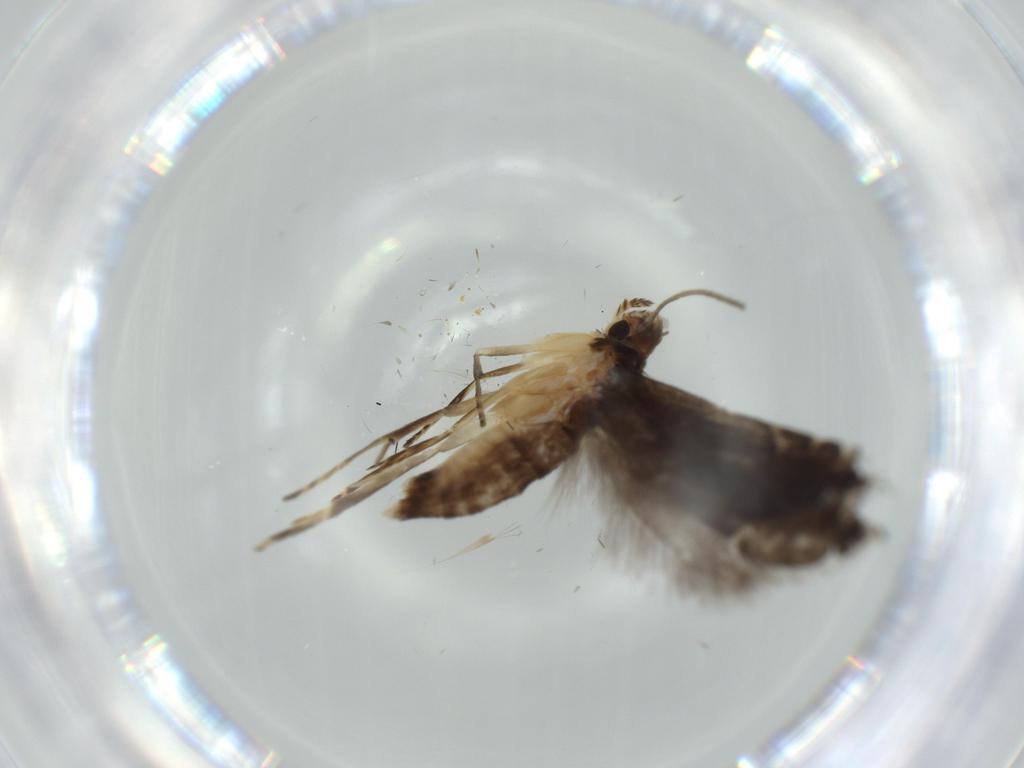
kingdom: Animalia
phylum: Arthropoda
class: Insecta
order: Lepidoptera
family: Glyphipterigidae
